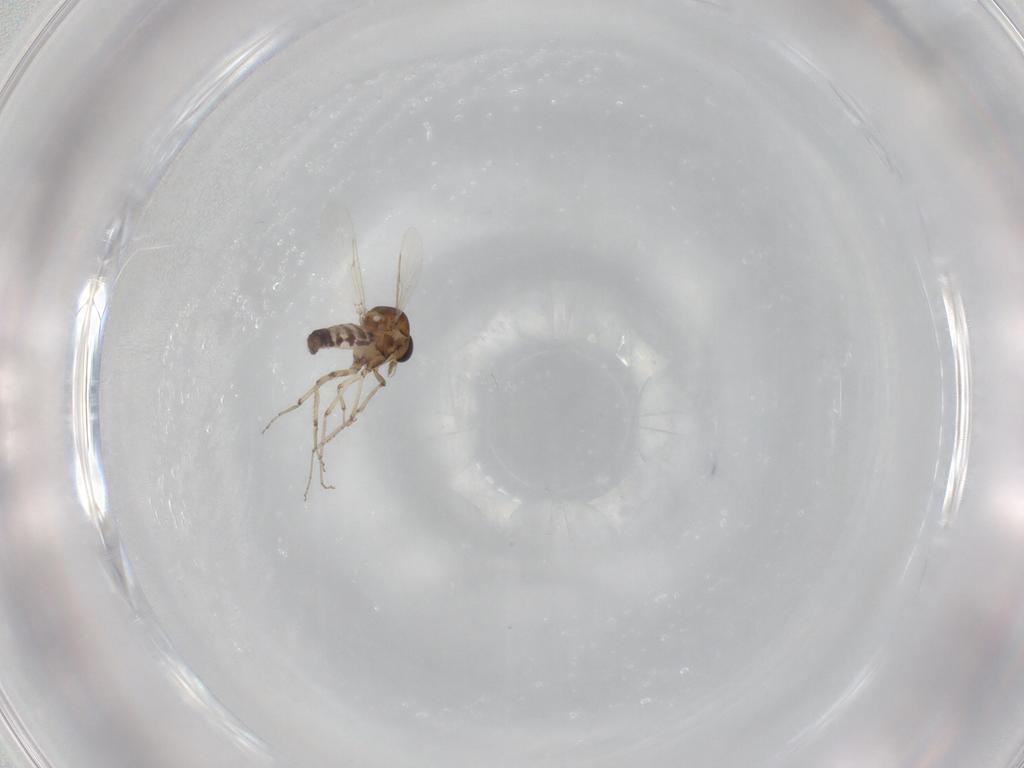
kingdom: Animalia
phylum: Arthropoda
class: Insecta
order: Diptera
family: Ceratopogonidae
